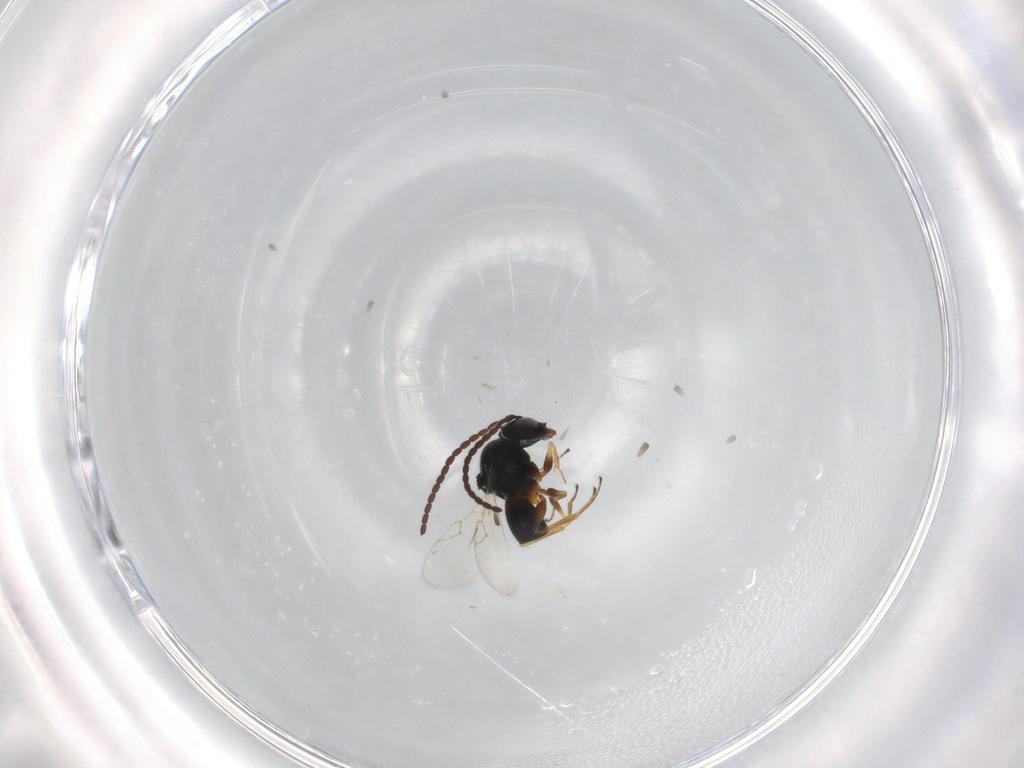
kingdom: Animalia
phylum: Arthropoda
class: Insecta
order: Hymenoptera
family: Figitidae
